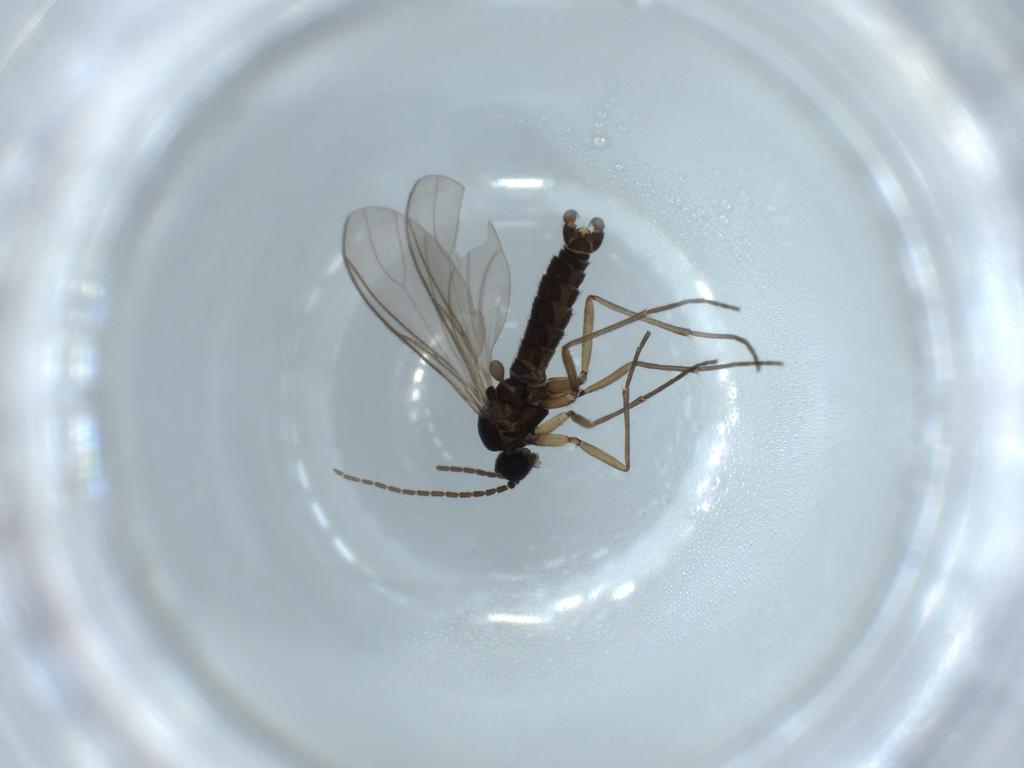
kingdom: Animalia
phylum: Arthropoda
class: Insecta
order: Diptera
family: Sciaridae
